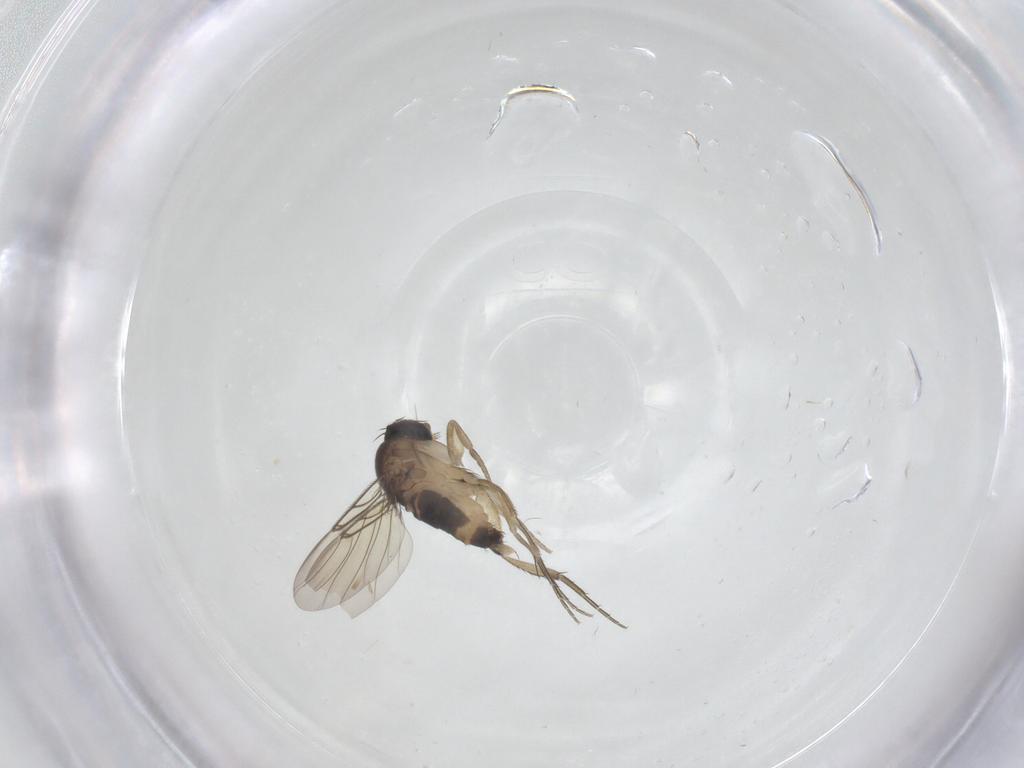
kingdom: Animalia
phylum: Arthropoda
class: Insecta
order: Diptera
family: Phoridae
